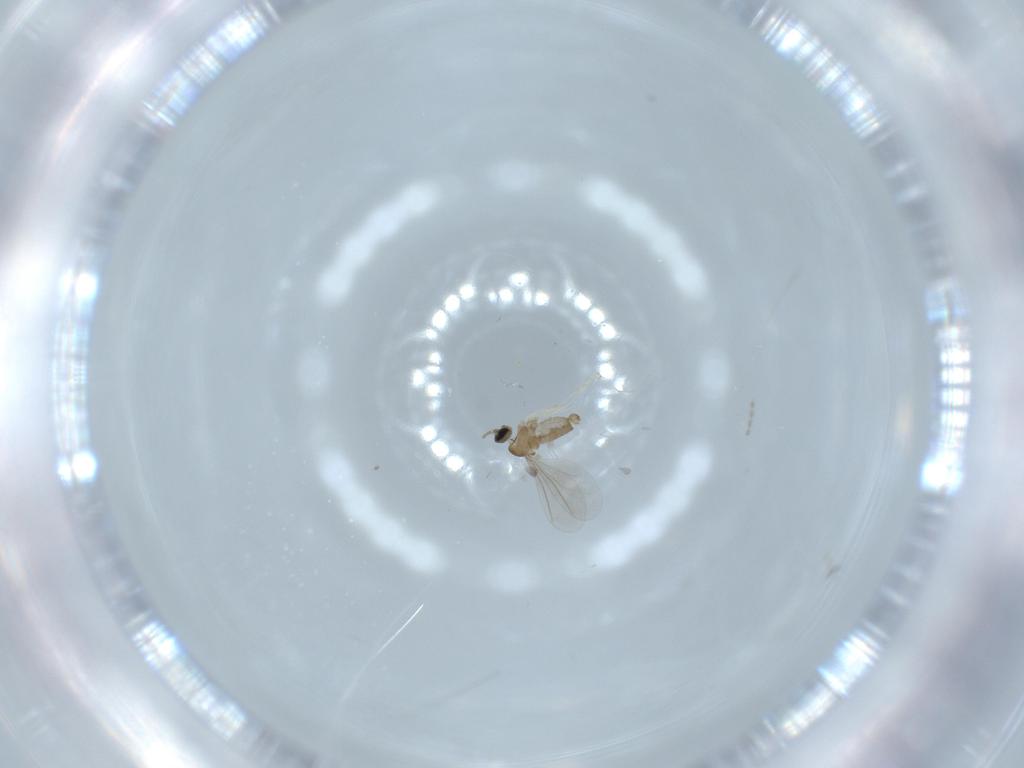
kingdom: Animalia
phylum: Arthropoda
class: Insecta
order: Diptera
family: Cecidomyiidae
